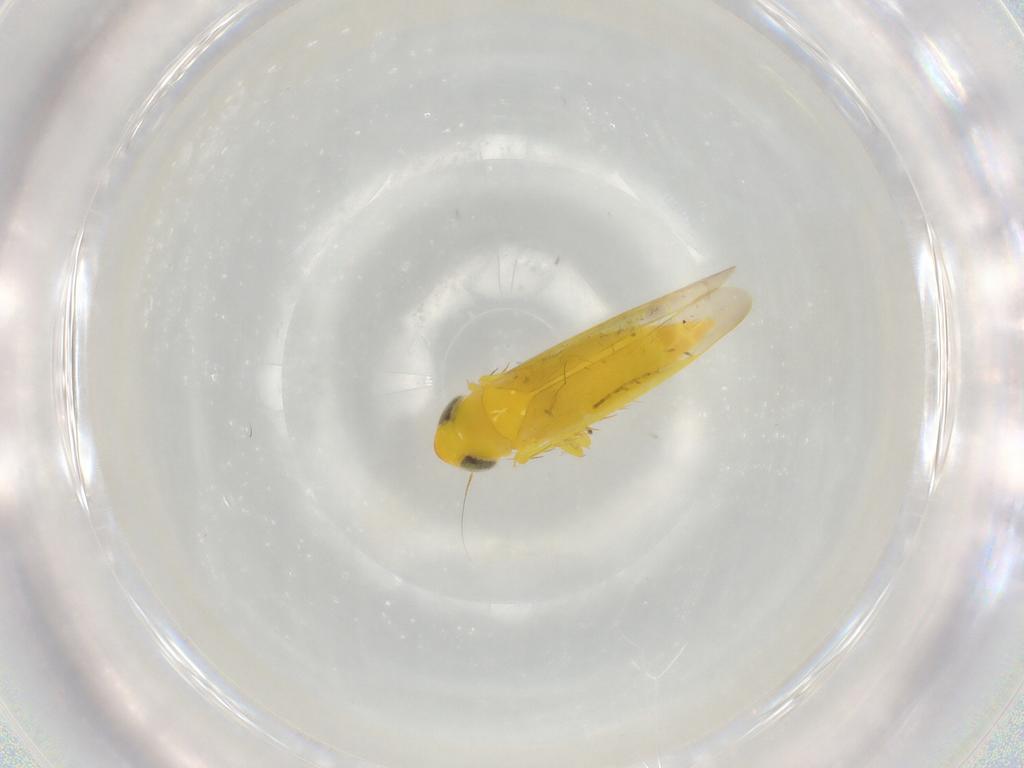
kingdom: Animalia
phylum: Arthropoda
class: Insecta
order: Hemiptera
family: Cicadellidae
